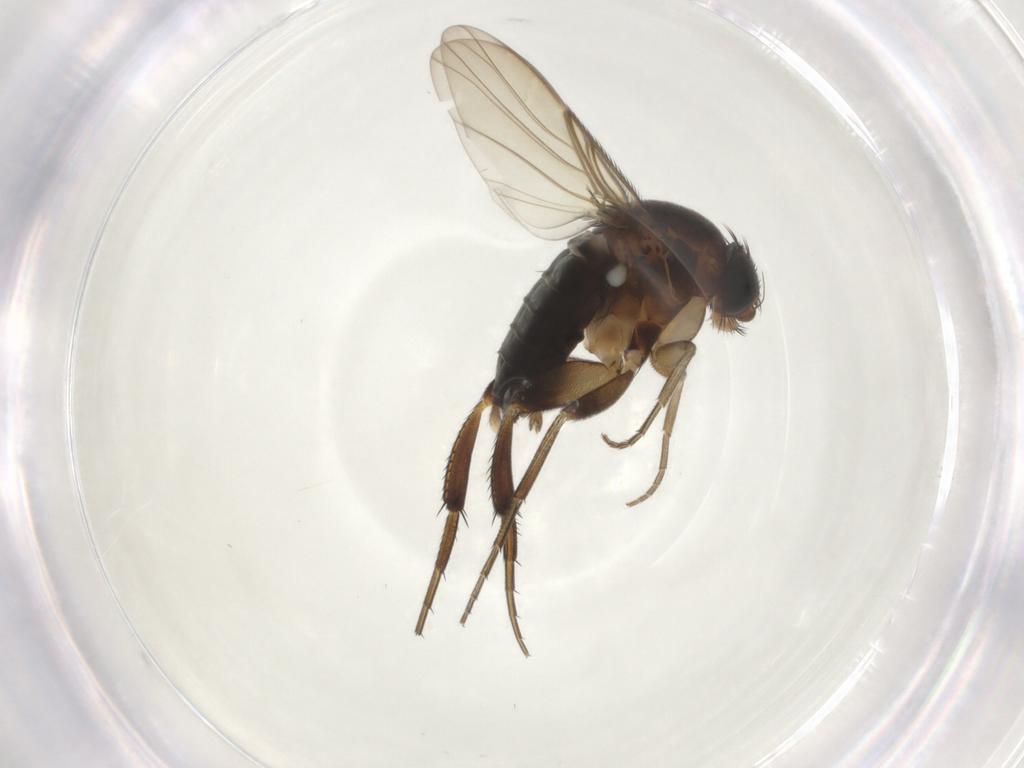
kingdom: Animalia
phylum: Arthropoda
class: Insecta
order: Diptera
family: Phoridae
